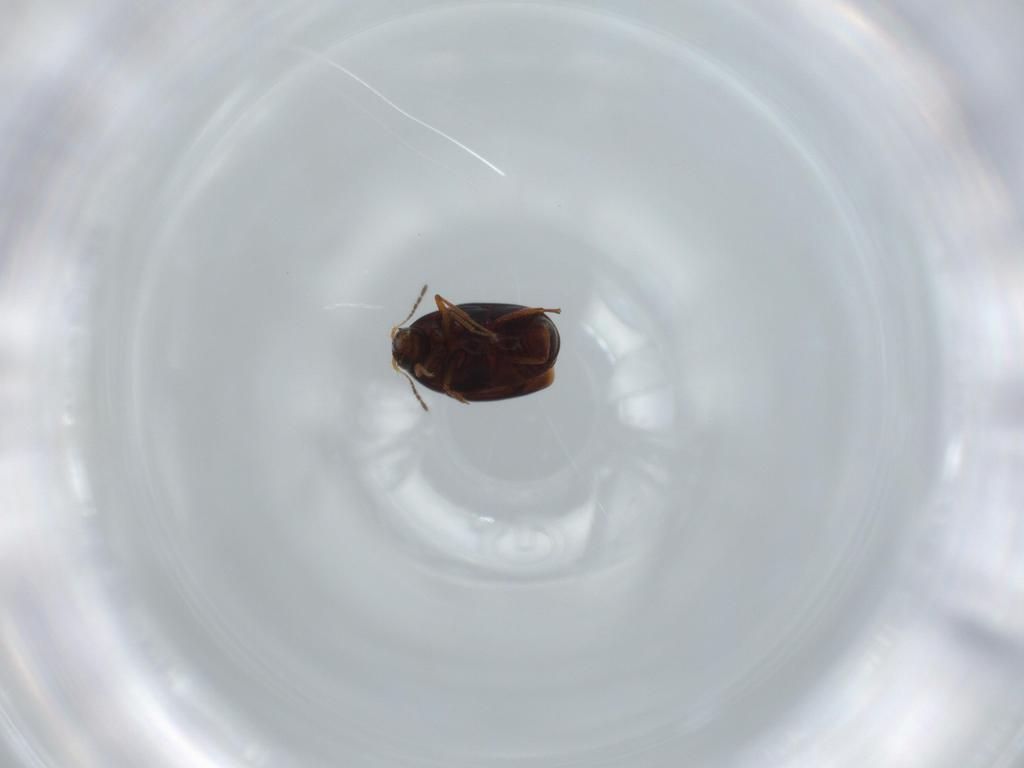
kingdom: Animalia
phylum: Arthropoda
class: Insecta
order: Coleoptera
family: Staphylinidae
